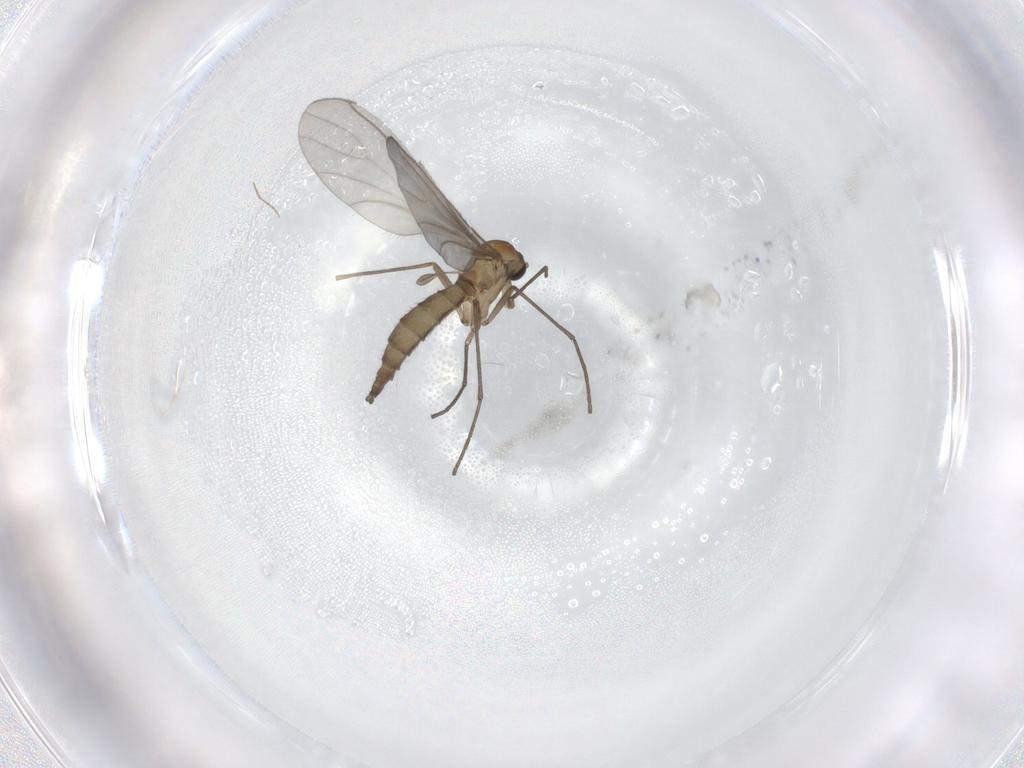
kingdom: Animalia
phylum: Arthropoda
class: Insecta
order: Diptera
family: Sciaridae
